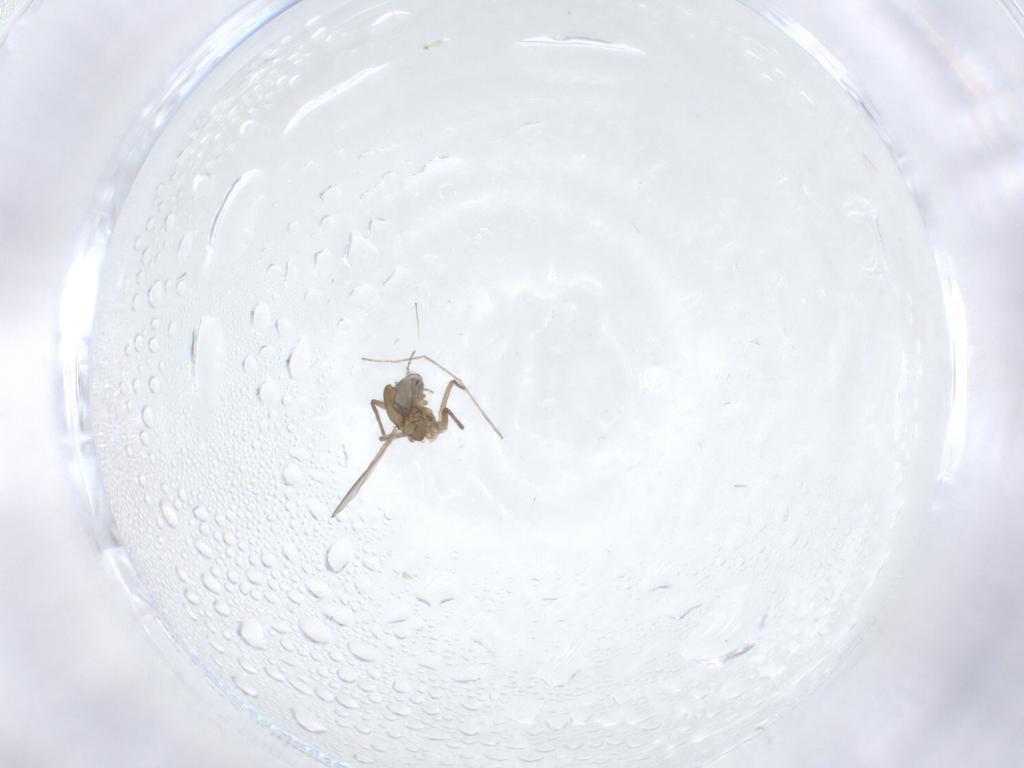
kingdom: Animalia
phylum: Arthropoda
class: Insecta
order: Diptera
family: Chironomidae
